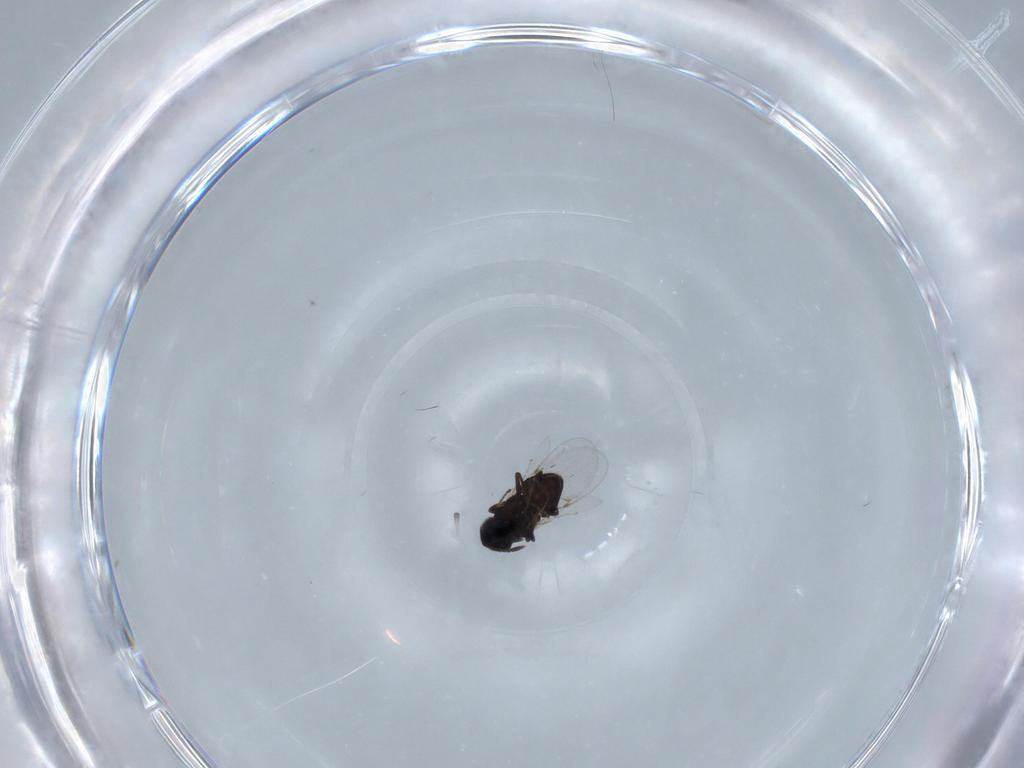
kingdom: Animalia
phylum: Arthropoda
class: Insecta
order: Hymenoptera
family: Encyrtidae
